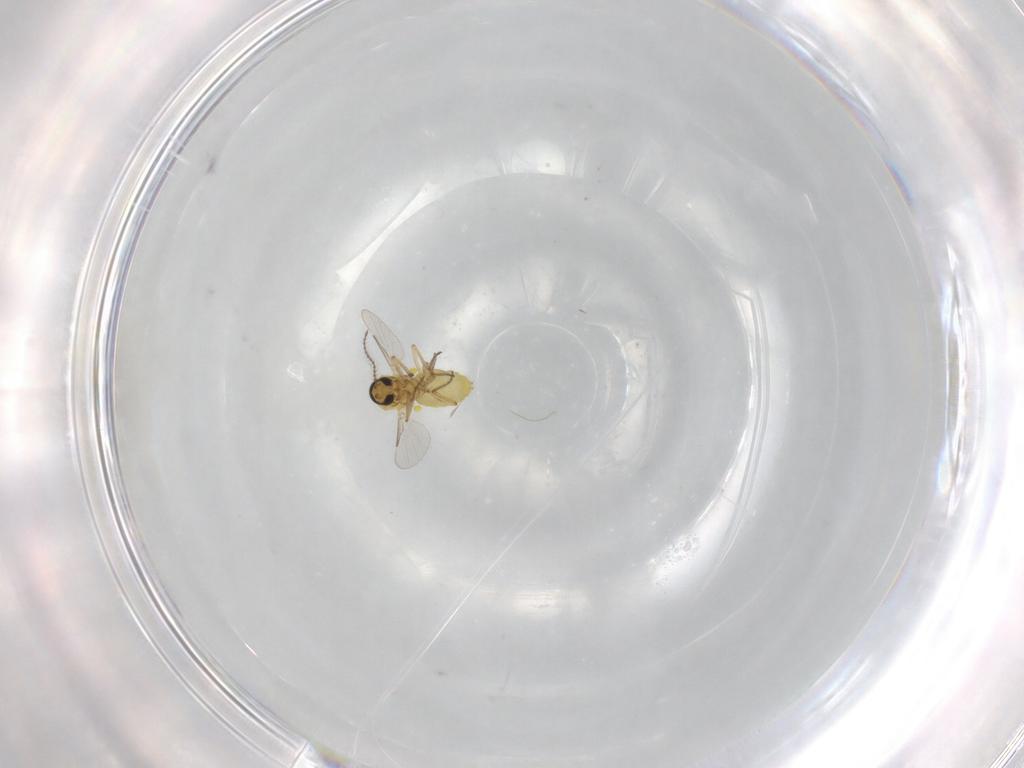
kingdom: Animalia
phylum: Arthropoda
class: Insecta
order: Diptera
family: Ceratopogonidae
